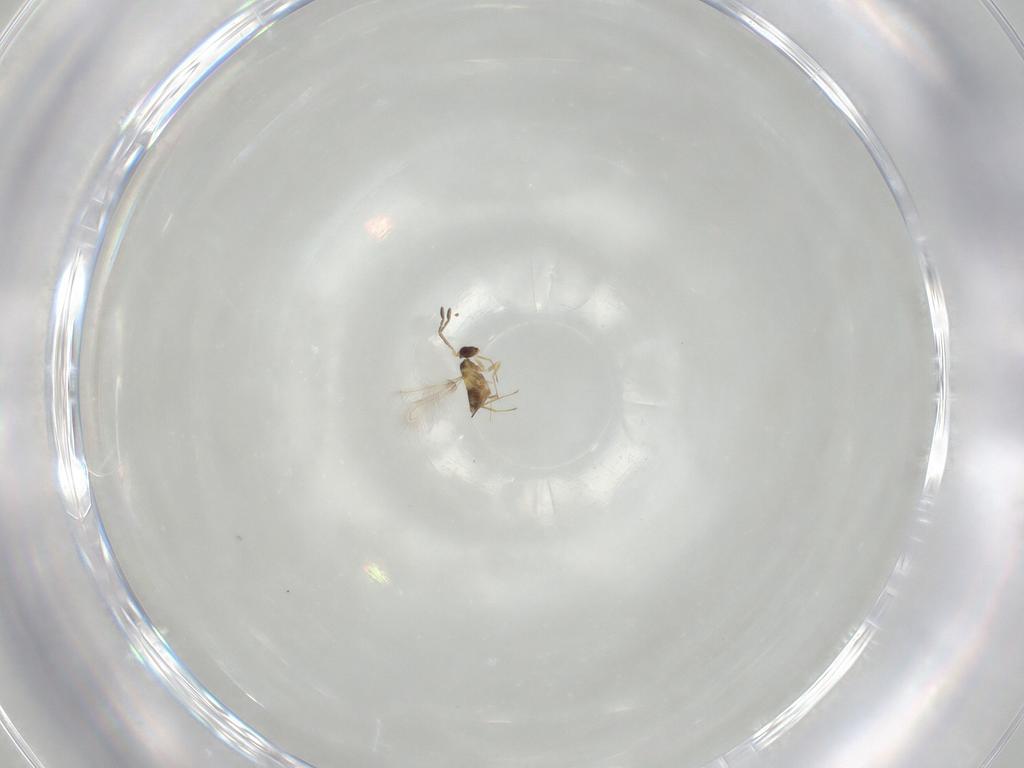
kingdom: Animalia
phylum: Arthropoda
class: Insecta
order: Hymenoptera
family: Mymaridae
